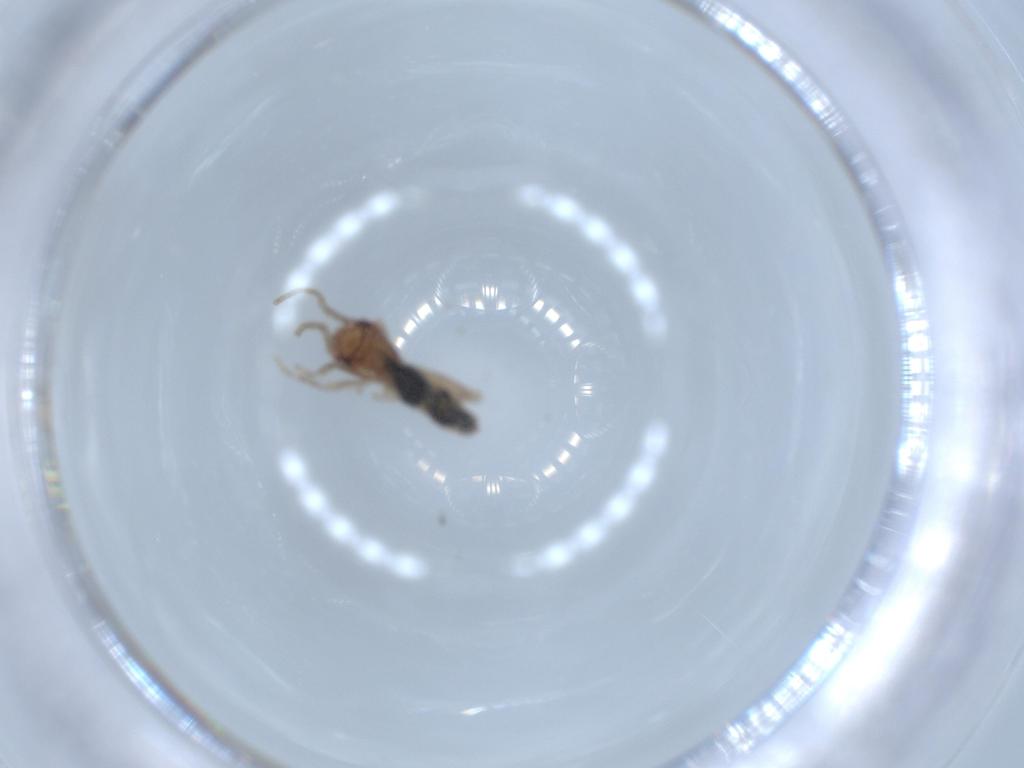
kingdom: Animalia
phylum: Arthropoda
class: Insecta
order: Orthoptera
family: Mogoplistidae
